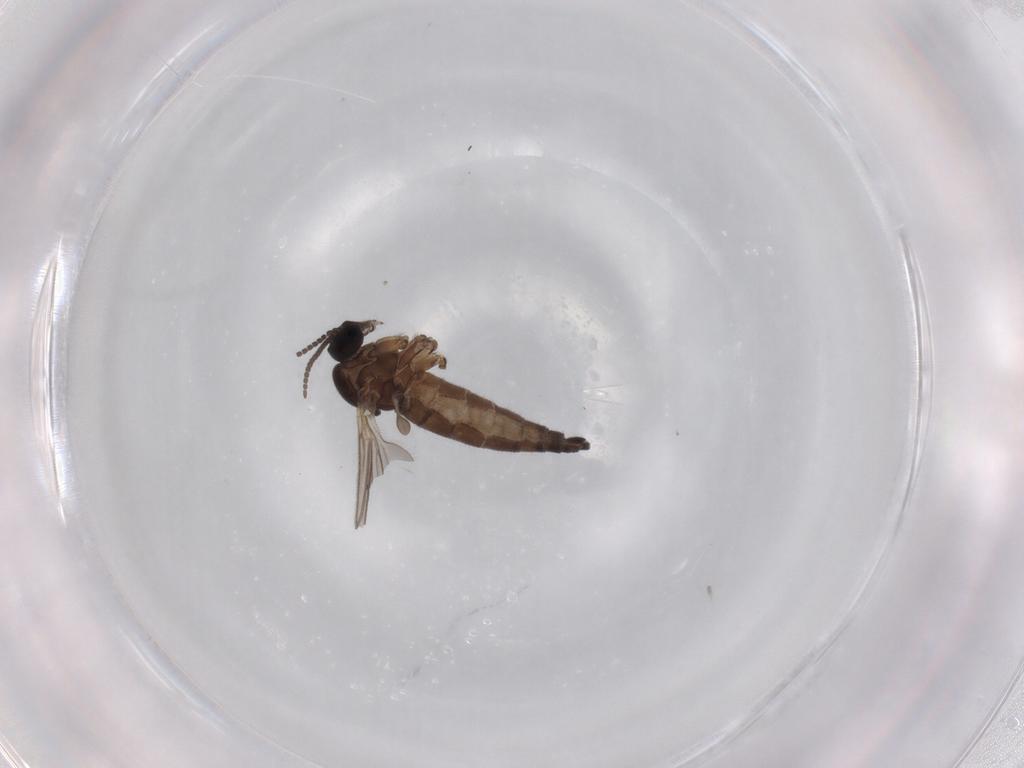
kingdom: Animalia
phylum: Arthropoda
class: Insecta
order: Diptera
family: Sciaridae
